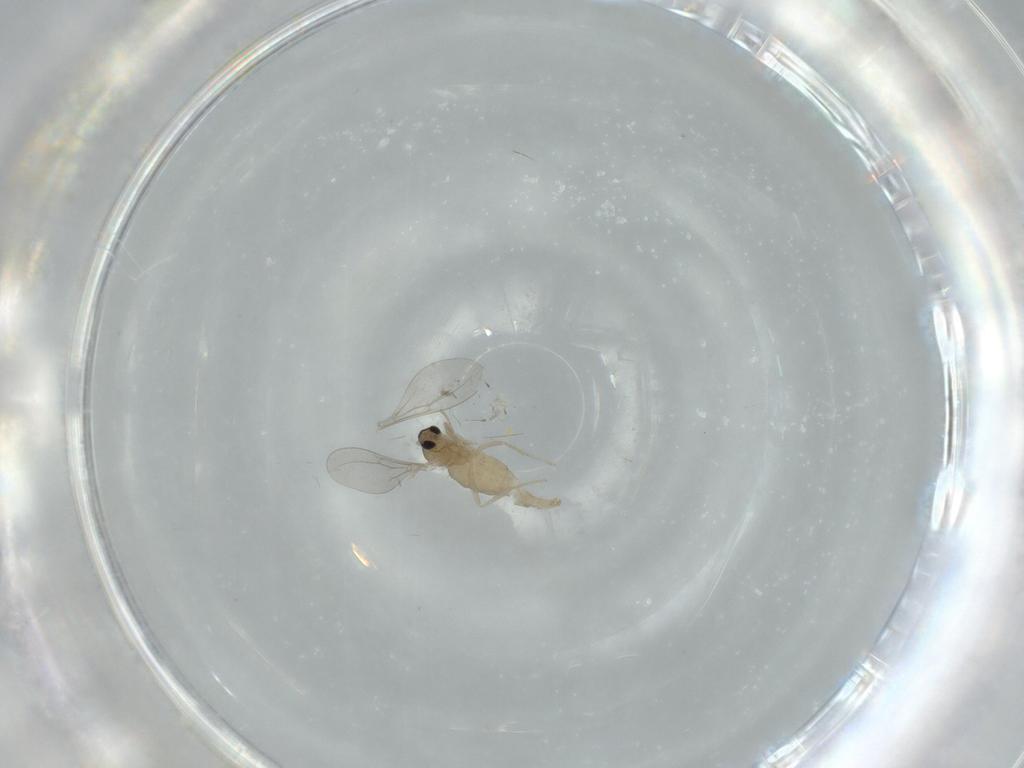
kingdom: Animalia
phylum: Arthropoda
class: Insecta
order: Diptera
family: Cecidomyiidae
